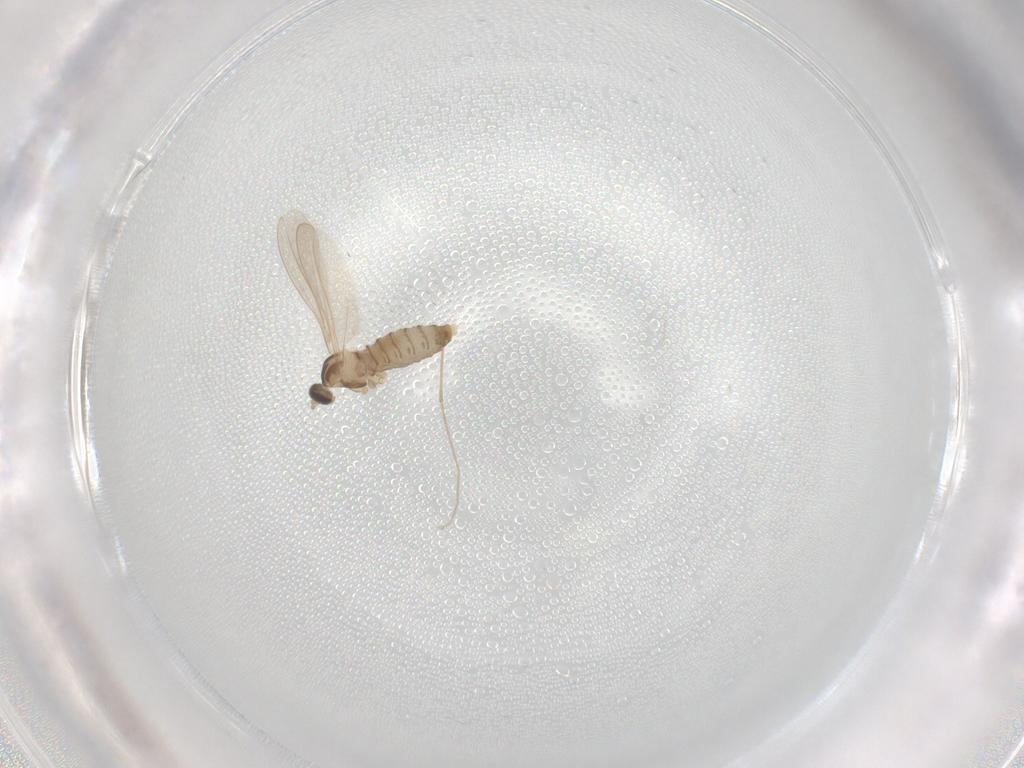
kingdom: Animalia
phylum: Arthropoda
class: Insecta
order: Diptera
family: Cecidomyiidae
